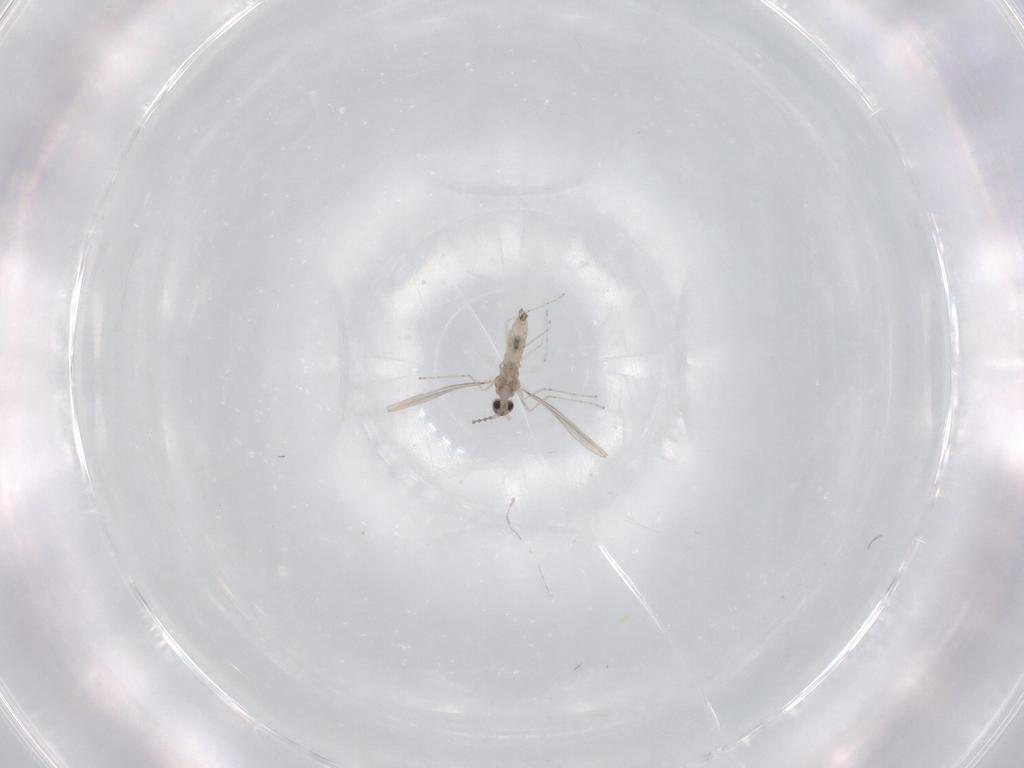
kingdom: Animalia
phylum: Arthropoda
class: Insecta
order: Diptera
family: Cecidomyiidae
